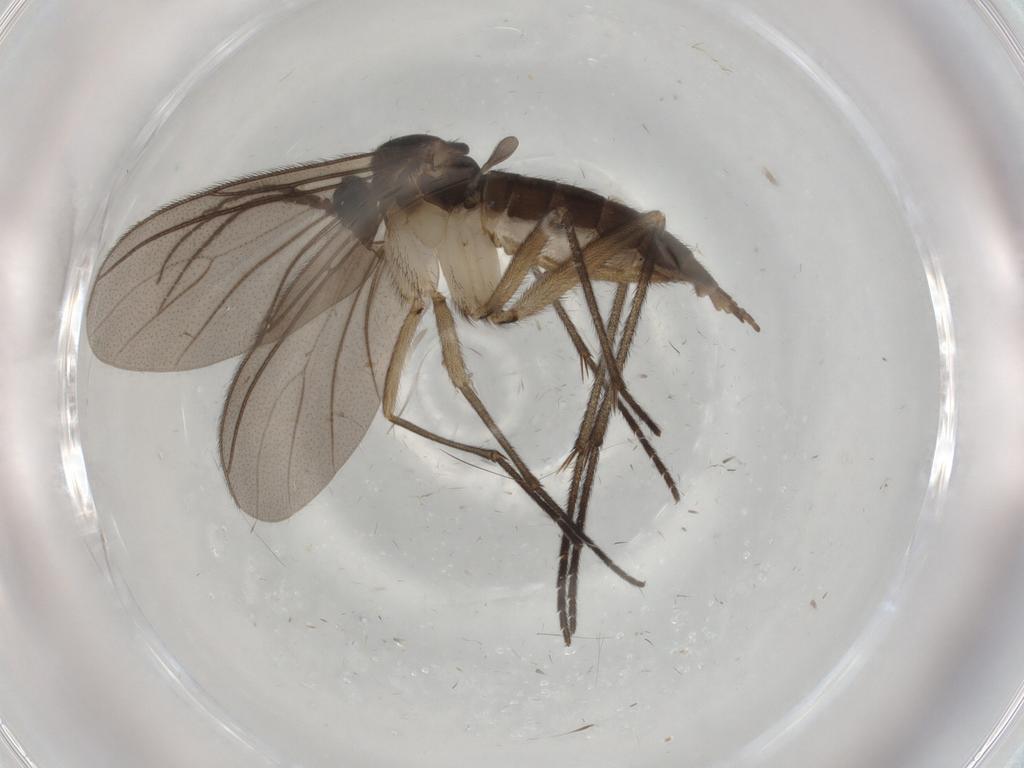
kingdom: Animalia
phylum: Arthropoda
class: Insecta
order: Diptera
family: Sciaridae
